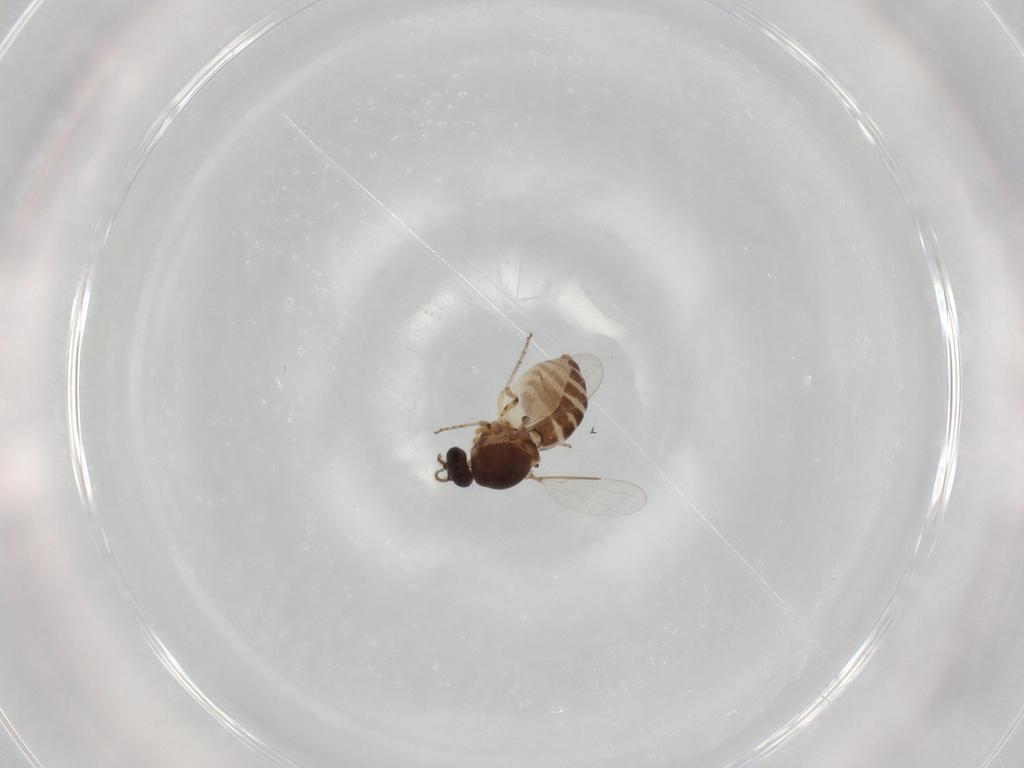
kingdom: Animalia
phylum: Arthropoda
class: Insecta
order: Diptera
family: Ceratopogonidae
